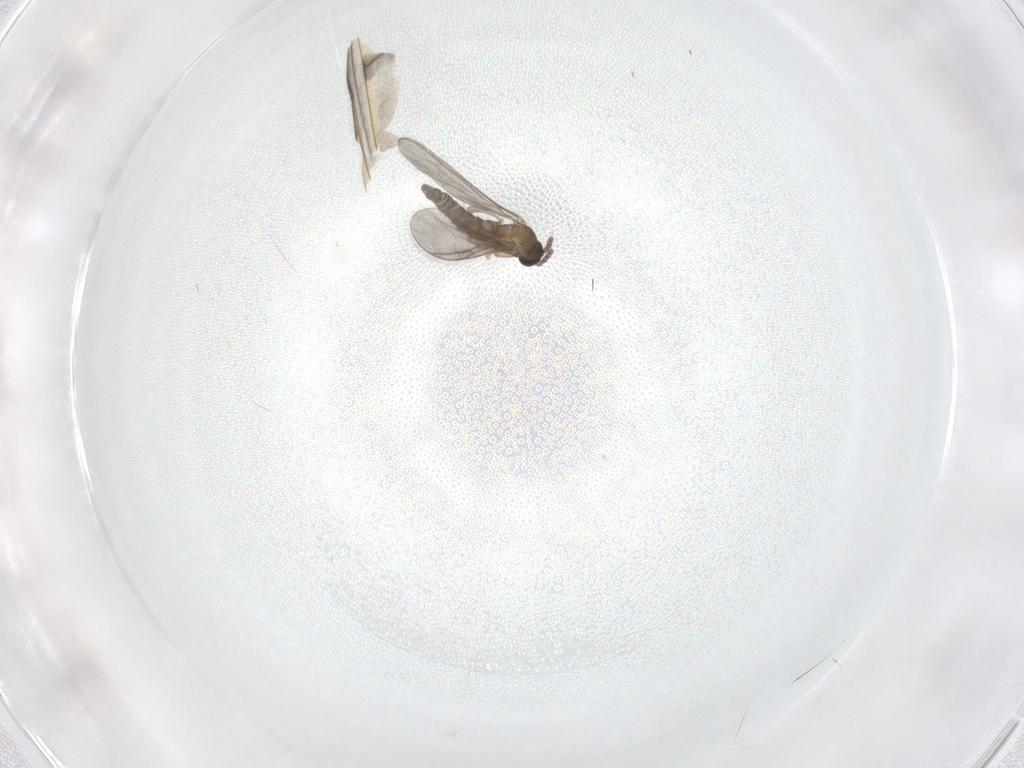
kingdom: Animalia
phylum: Arthropoda
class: Insecta
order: Diptera
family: Sciaridae
